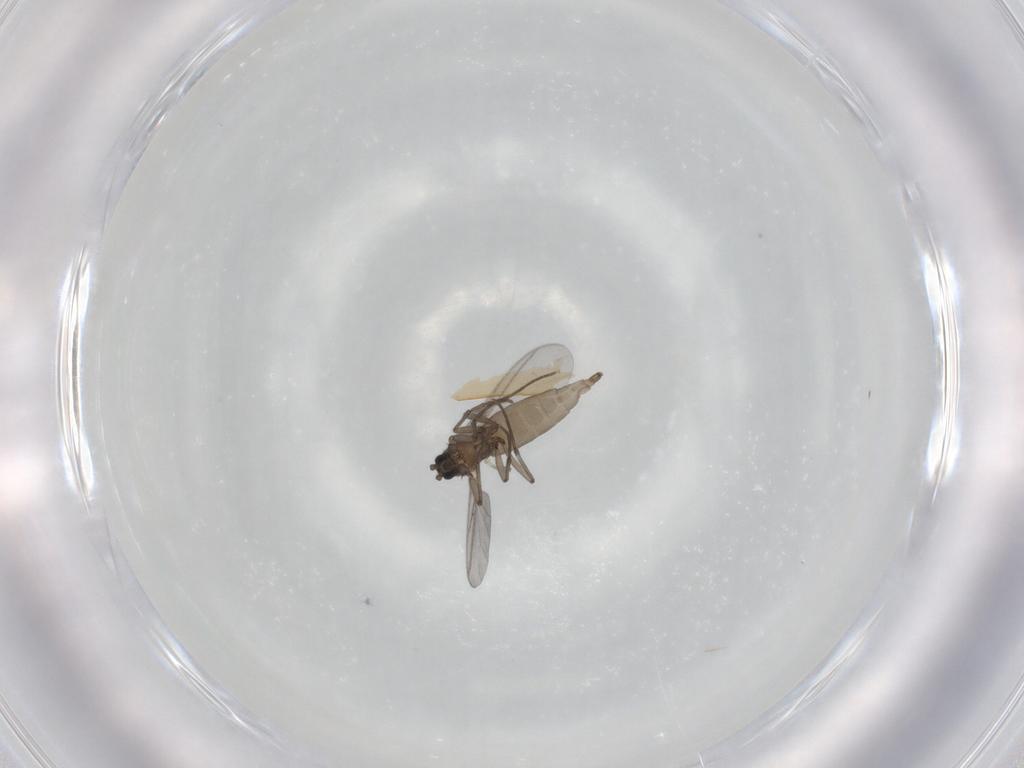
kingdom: Animalia
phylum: Arthropoda
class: Insecta
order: Diptera
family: Sciaridae
